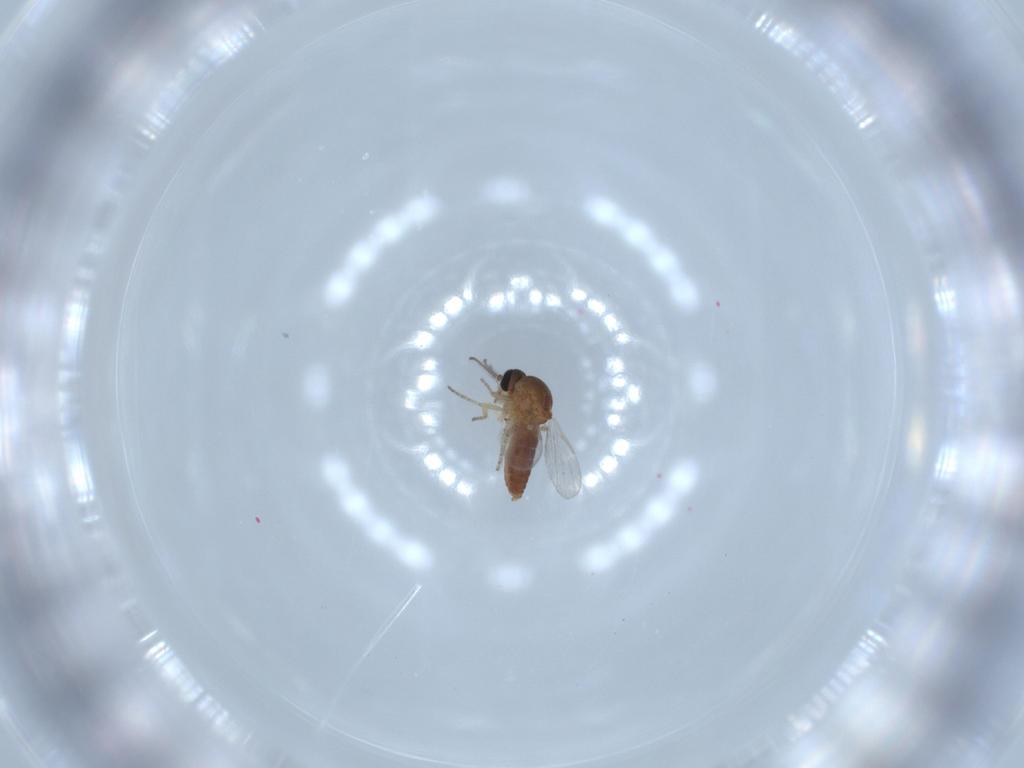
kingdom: Animalia
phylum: Arthropoda
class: Insecta
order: Diptera
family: Ceratopogonidae
